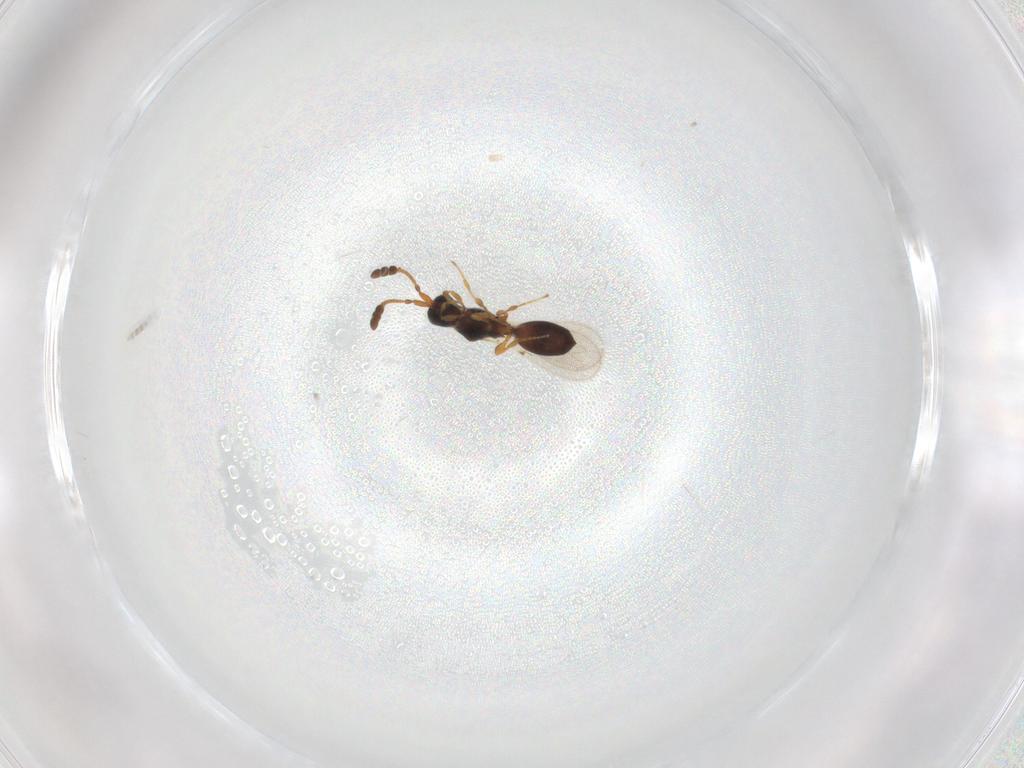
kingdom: Animalia
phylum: Arthropoda
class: Insecta
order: Hymenoptera
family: Diapriidae
